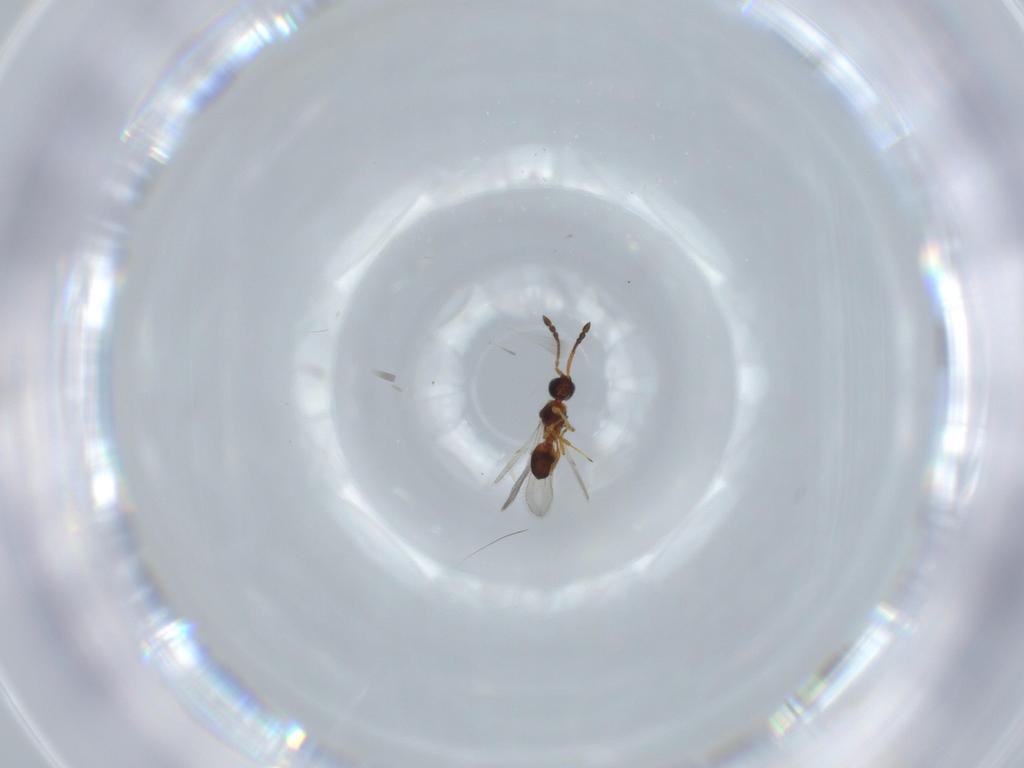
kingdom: Animalia
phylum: Arthropoda
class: Insecta
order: Hymenoptera
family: Diapriidae
